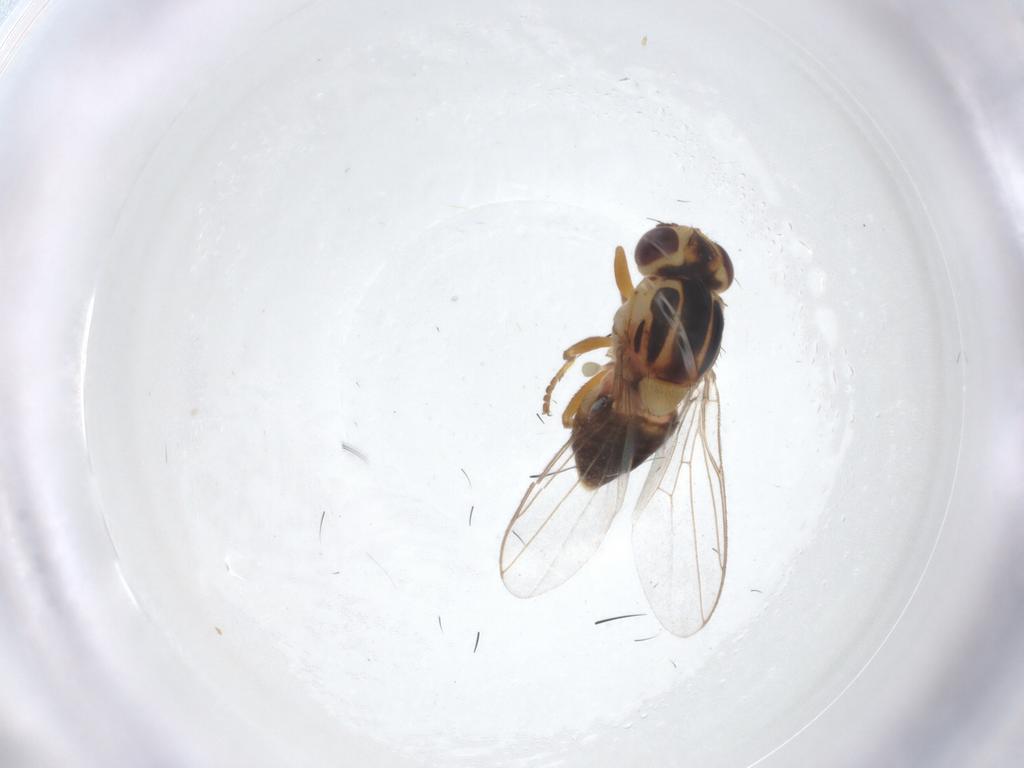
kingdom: Animalia
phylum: Arthropoda
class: Insecta
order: Diptera
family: Chloropidae
